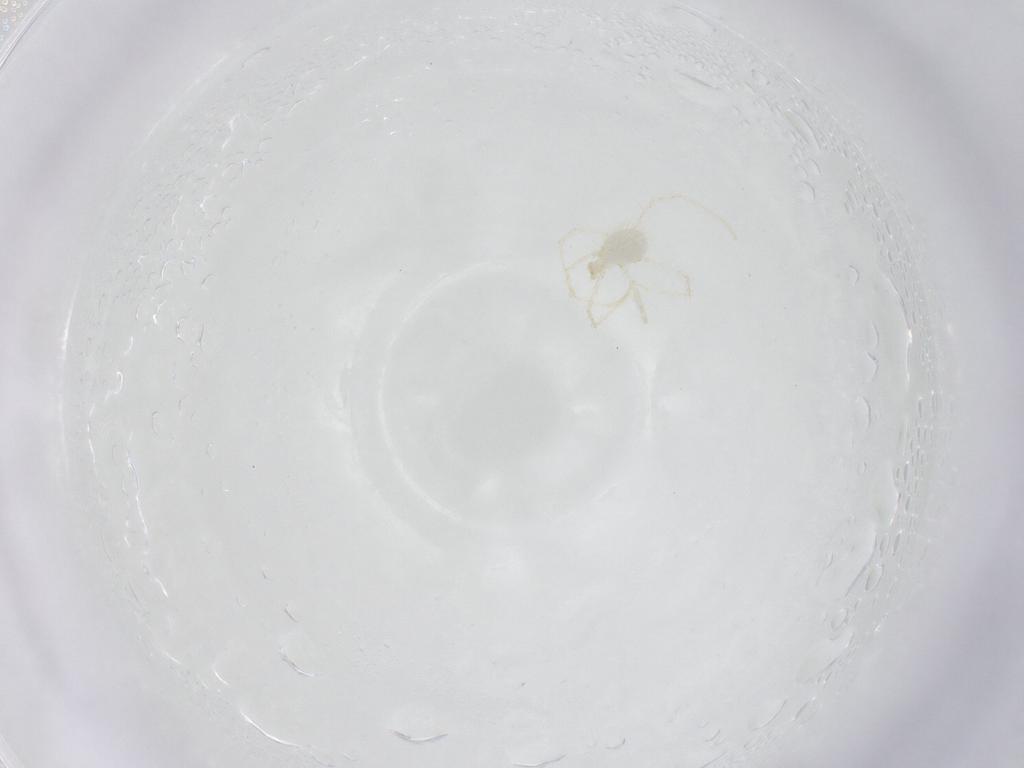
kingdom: Animalia
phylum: Arthropoda
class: Arachnida
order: Trombidiformes
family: Erythraeidae
